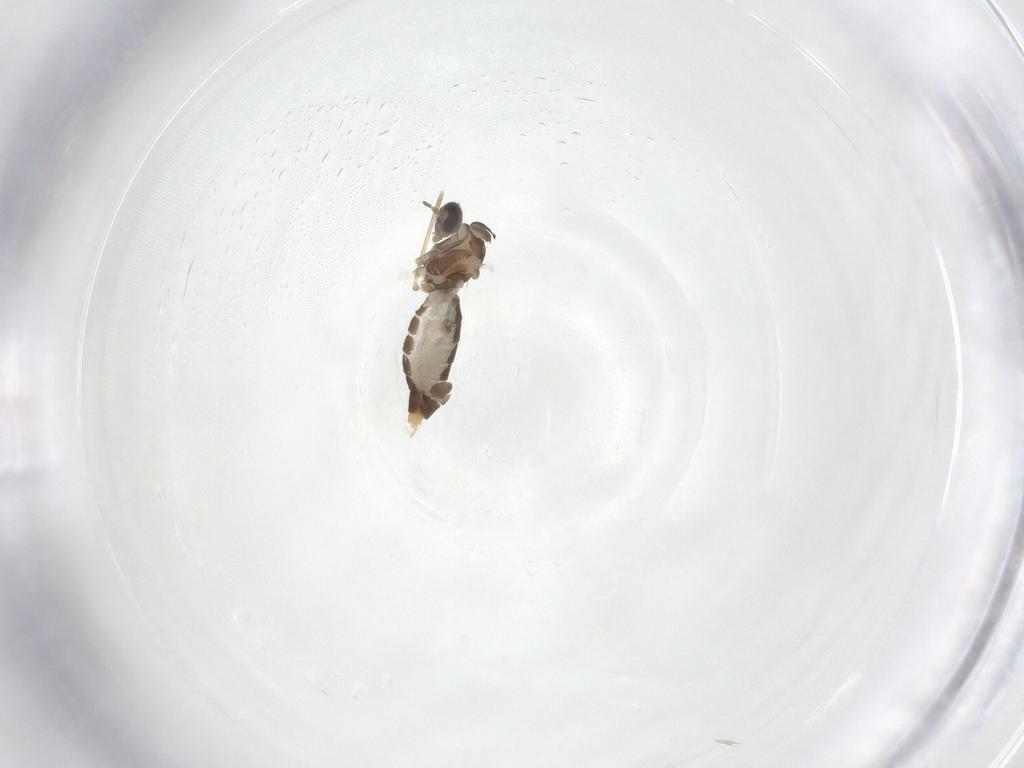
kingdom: Animalia
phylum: Arthropoda
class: Insecta
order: Diptera
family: Cecidomyiidae
